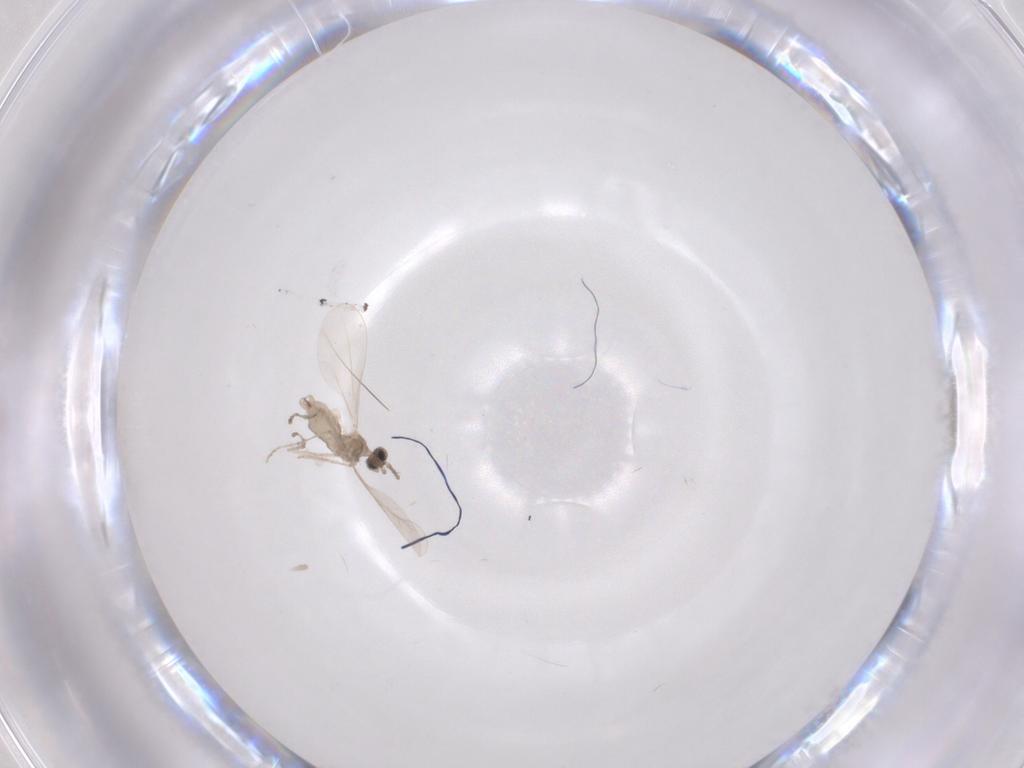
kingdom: Animalia
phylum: Arthropoda
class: Insecta
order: Diptera
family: Cecidomyiidae
